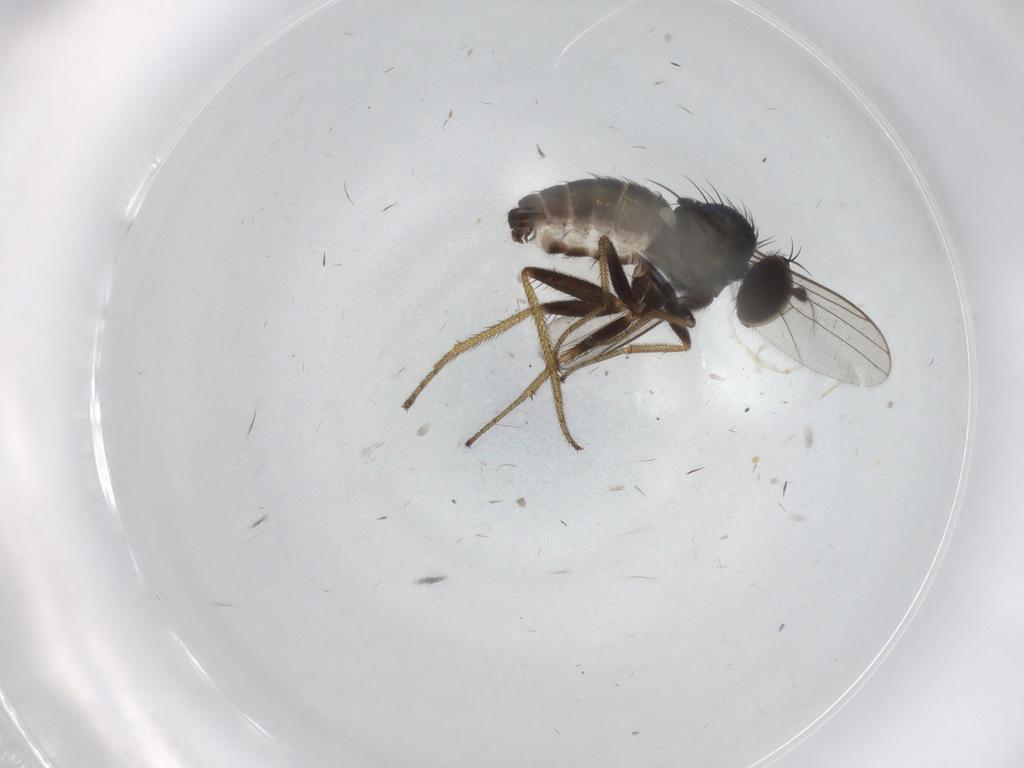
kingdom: Animalia
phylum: Arthropoda
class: Insecta
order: Diptera
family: Dolichopodidae
